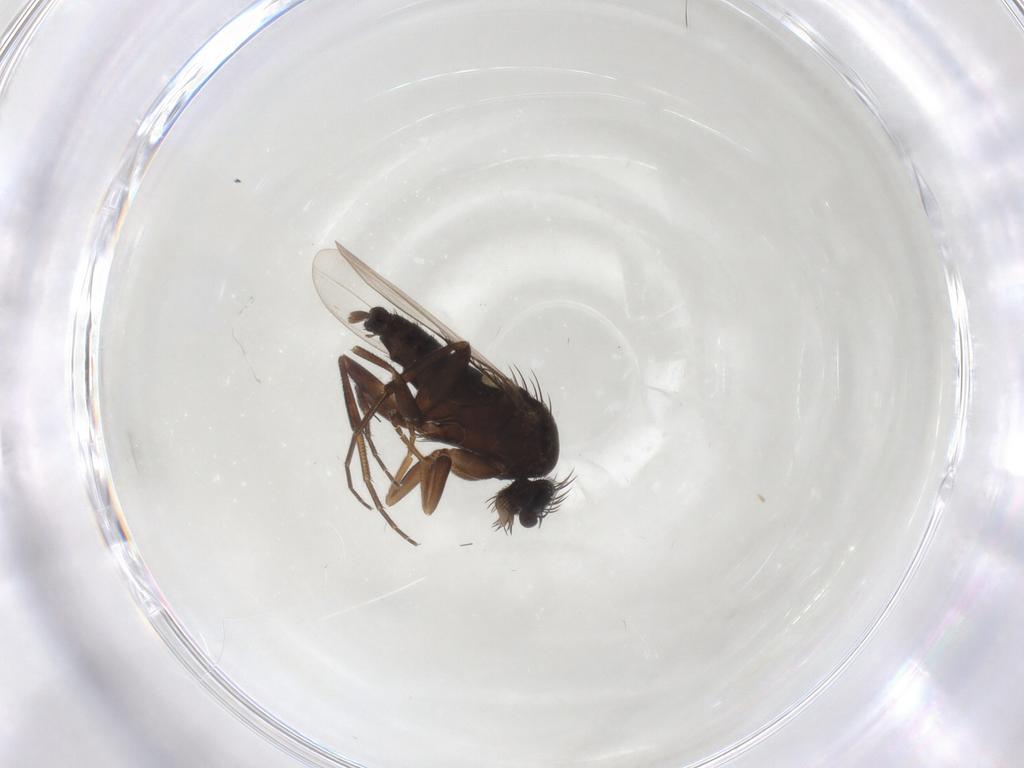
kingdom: Animalia
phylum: Arthropoda
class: Insecta
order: Diptera
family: Phoridae
